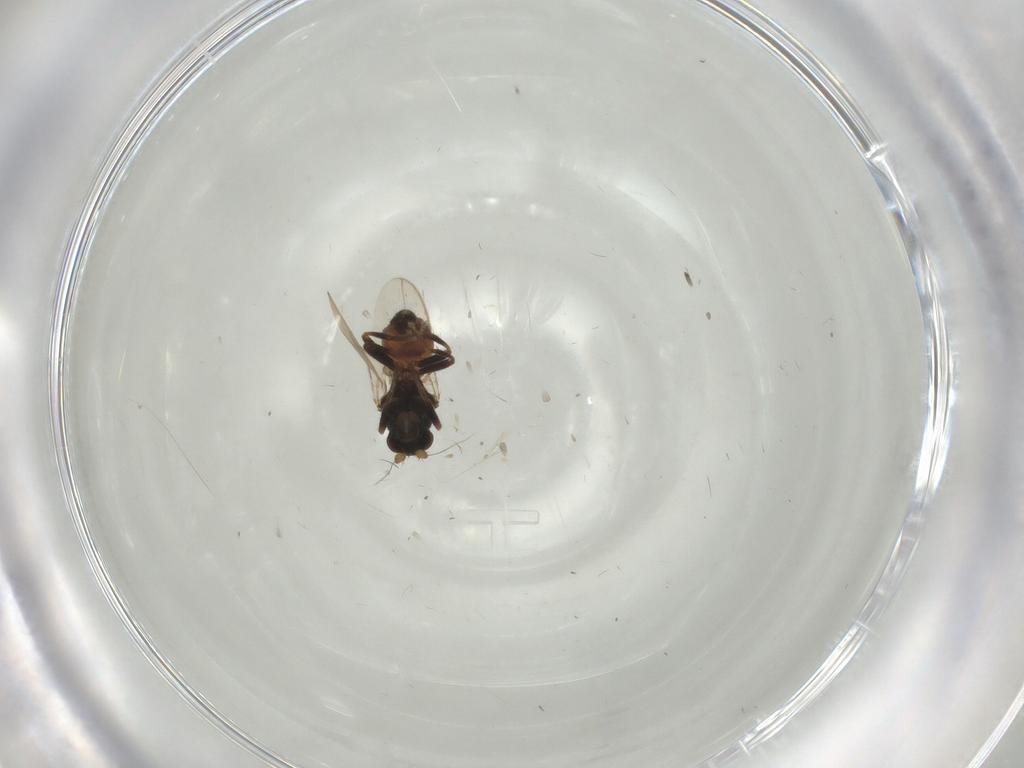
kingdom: Animalia
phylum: Arthropoda
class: Insecta
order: Diptera
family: Sphaeroceridae
